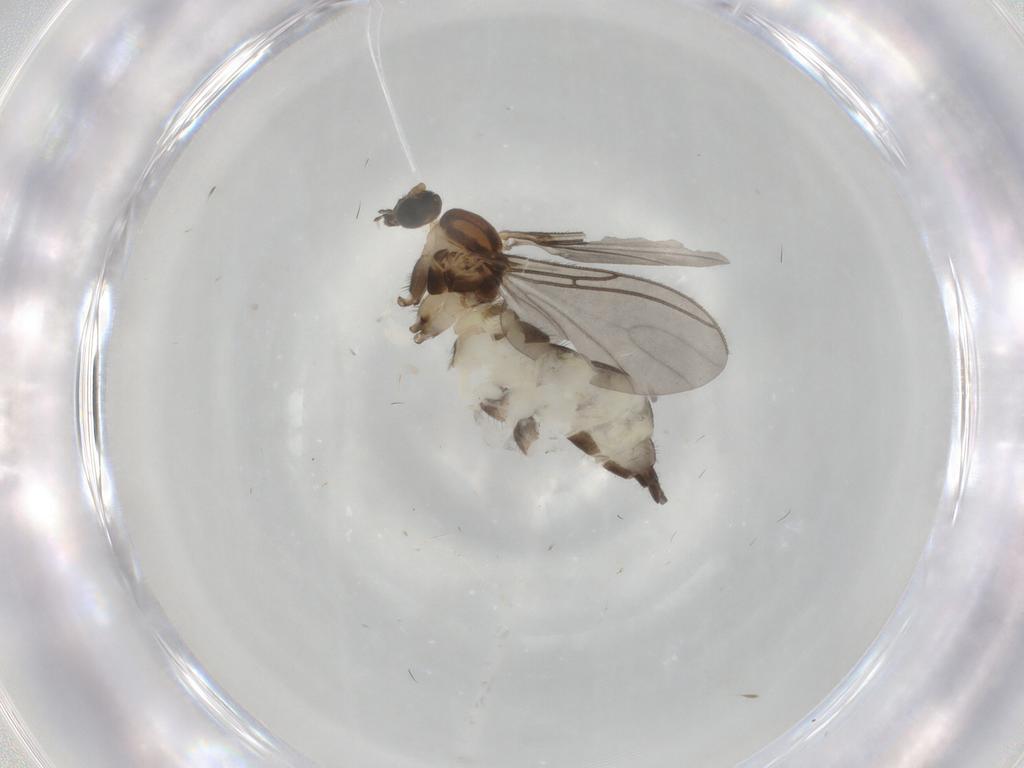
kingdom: Animalia
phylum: Arthropoda
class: Insecta
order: Diptera
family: Sciaridae
